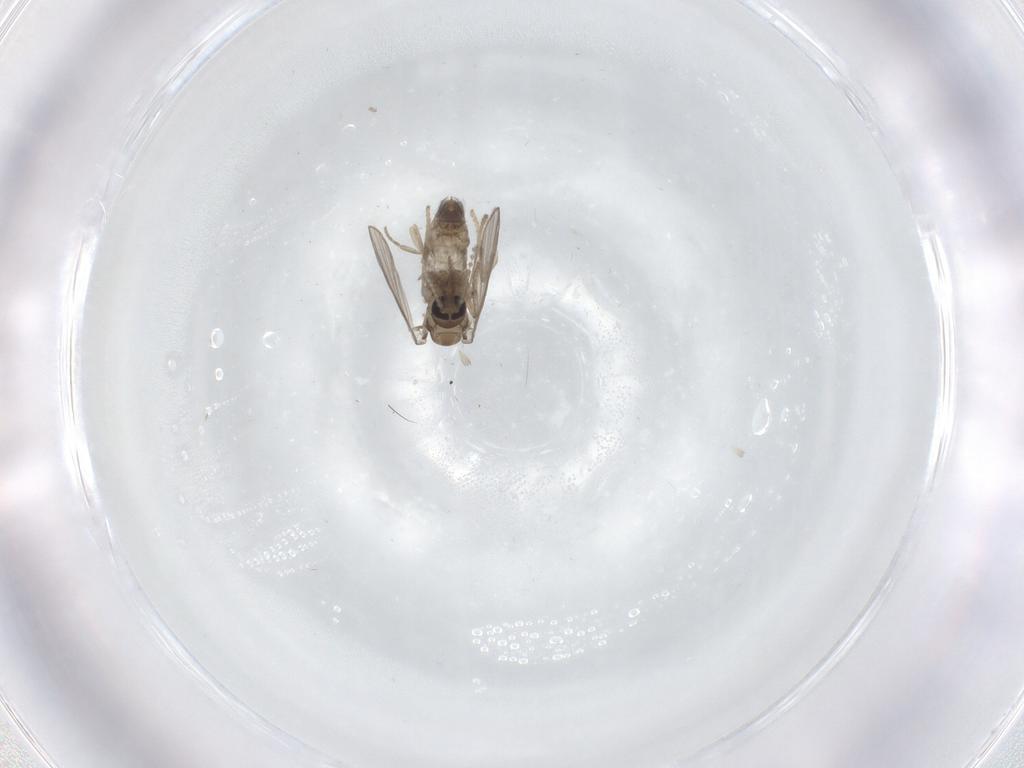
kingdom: Animalia
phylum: Arthropoda
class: Insecta
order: Diptera
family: Psychodidae
